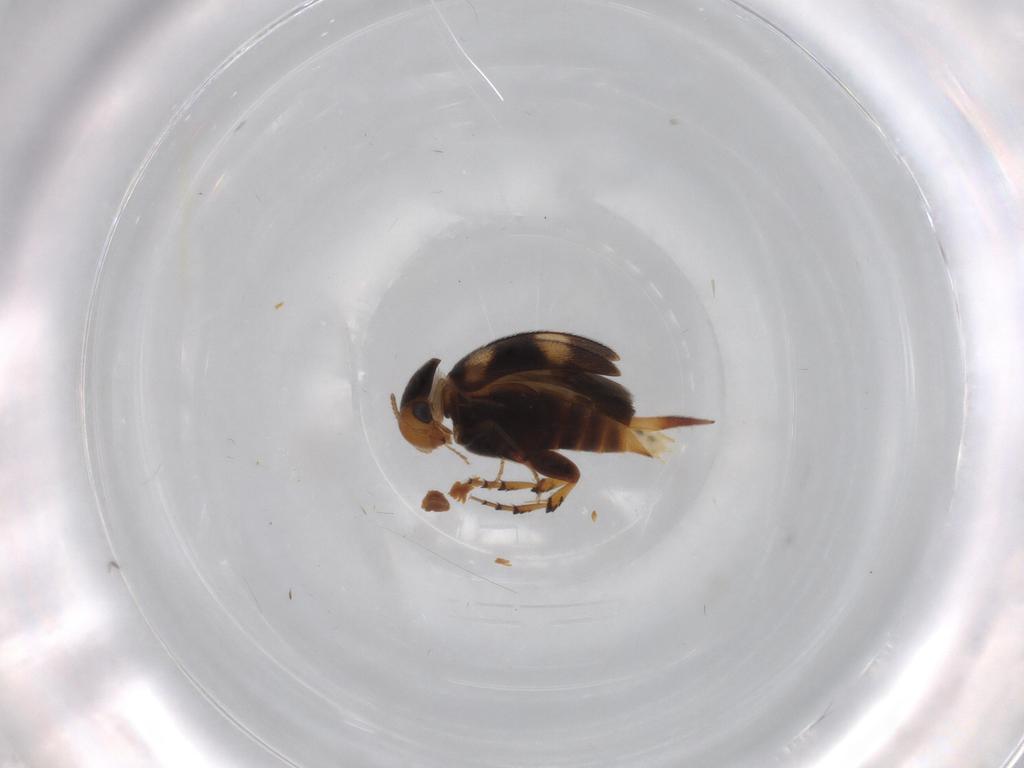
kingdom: Animalia
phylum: Arthropoda
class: Insecta
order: Coleoptera
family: Mordellidae
